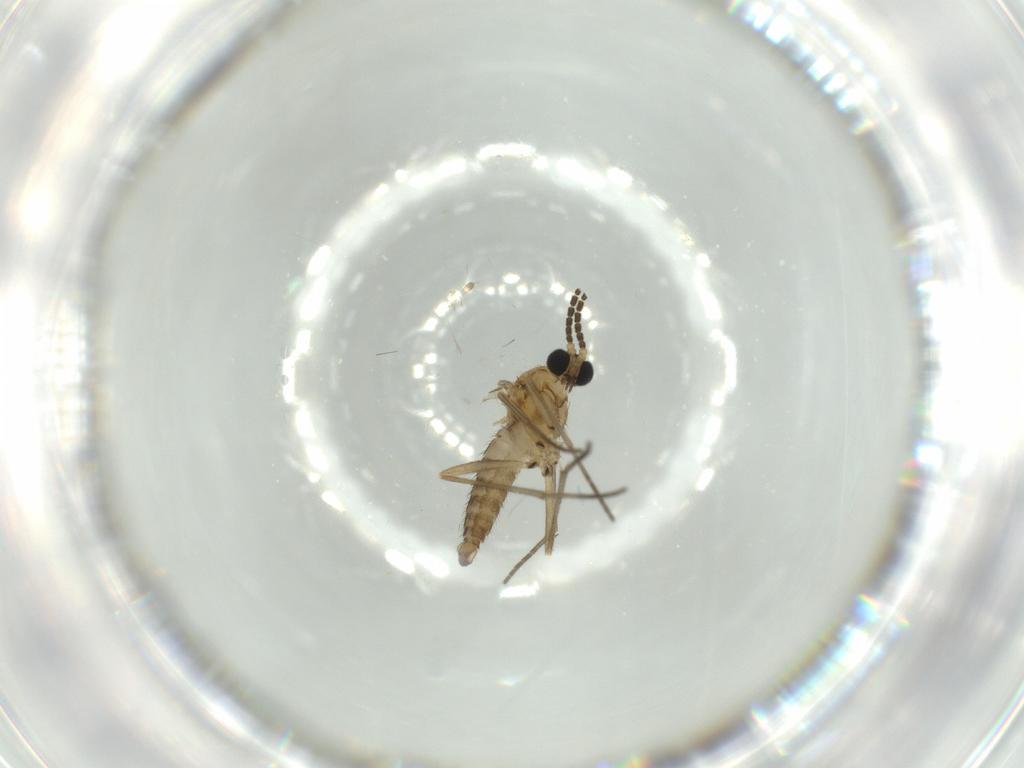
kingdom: Animalia
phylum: Arthropoda
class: Insecta
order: Diptera
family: Sciaridae
